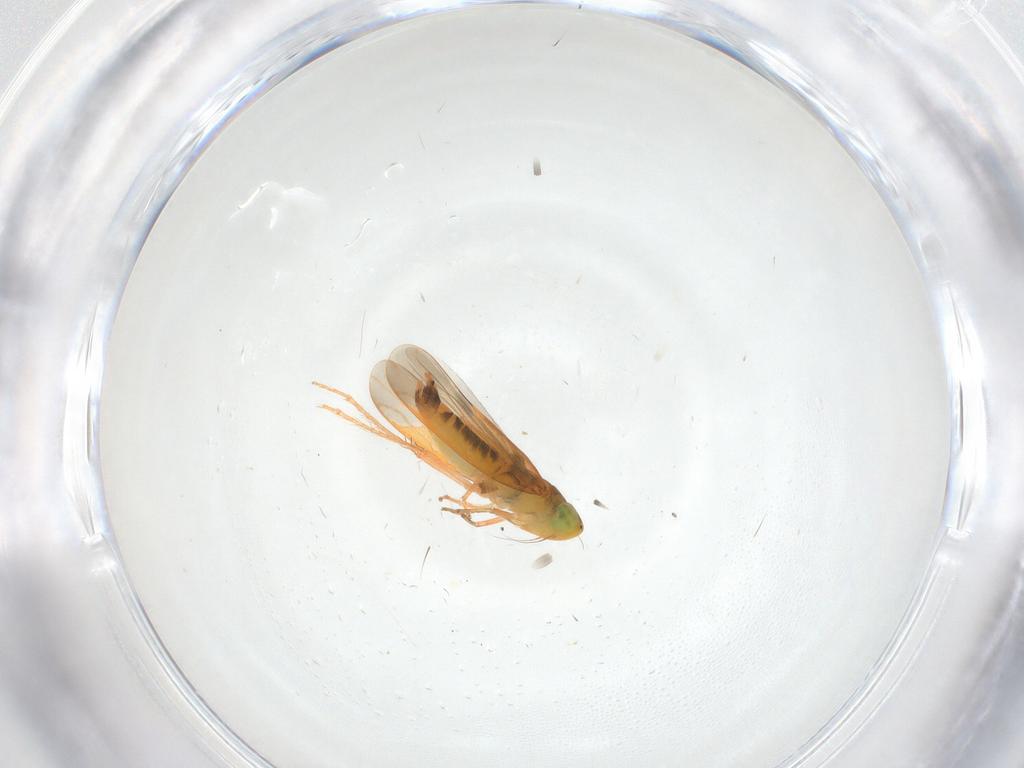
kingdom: Animalia
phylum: Arthropoda
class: Insecta
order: Hemiptera
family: Cicadellidae
